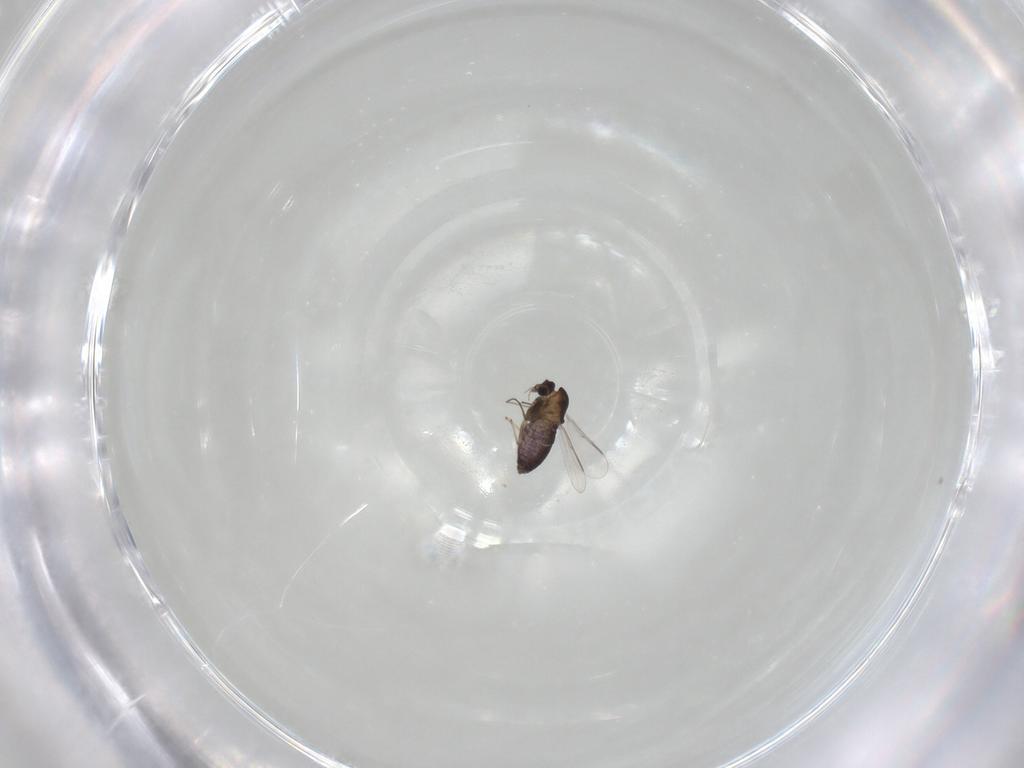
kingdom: Animalia
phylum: Arthropoda
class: Insecta
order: Diptera
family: Chironomidae
